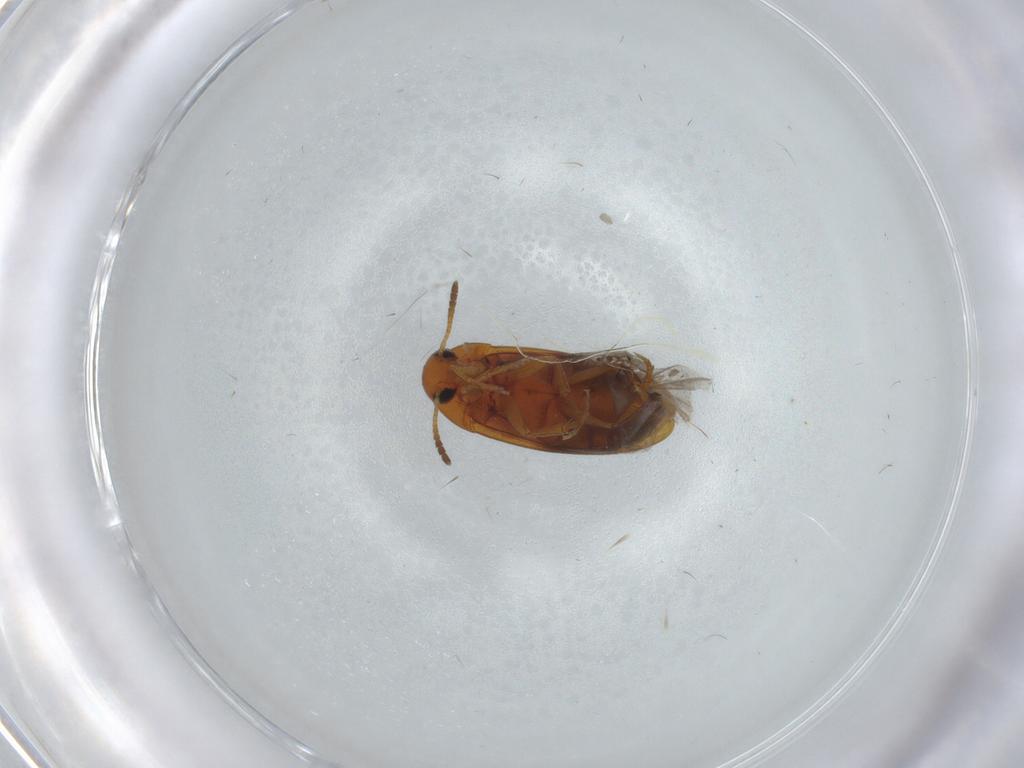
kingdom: Animalia
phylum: Arthropoda
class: Insecta
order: Coleoptera
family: Scraptiidae
